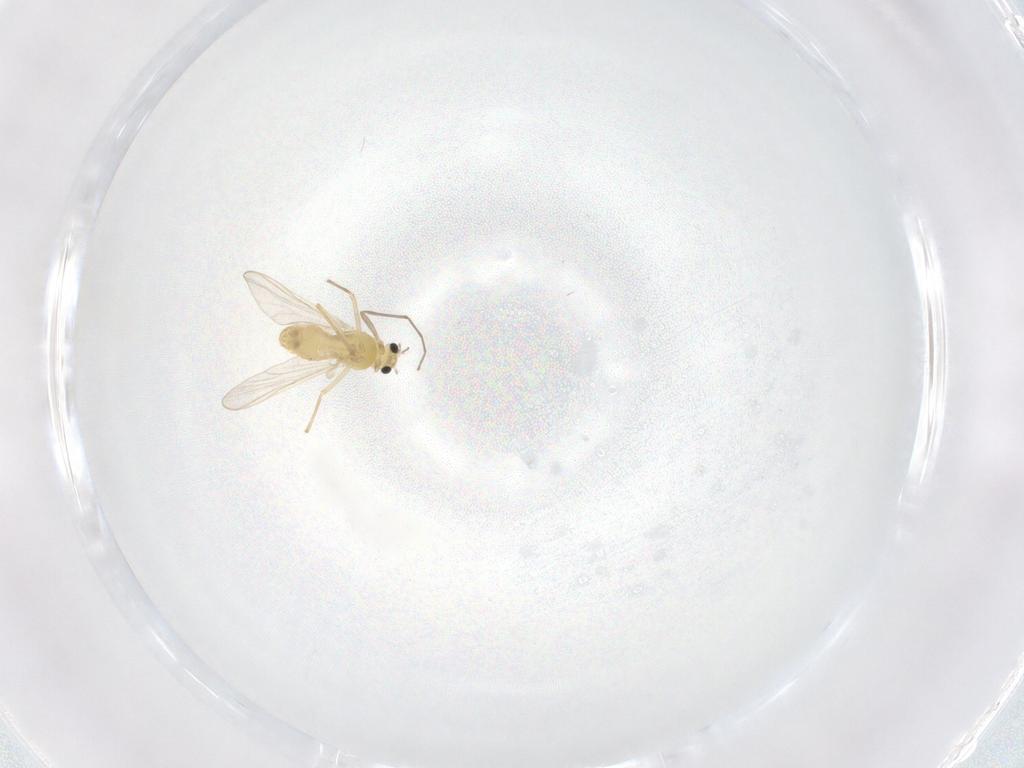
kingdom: Animalia
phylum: Arthropoda
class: Insecta
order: Diptera
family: Chironomidae
